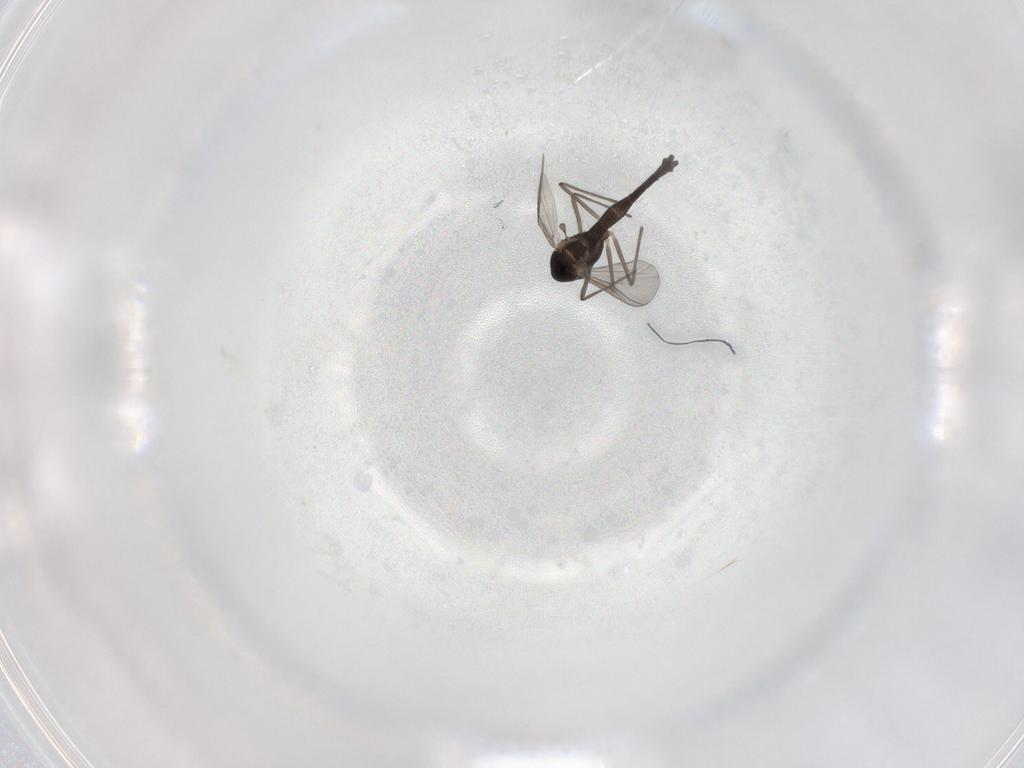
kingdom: Animalia
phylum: Arthropoda
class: Insecta
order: Diptera
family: Chironomidae
